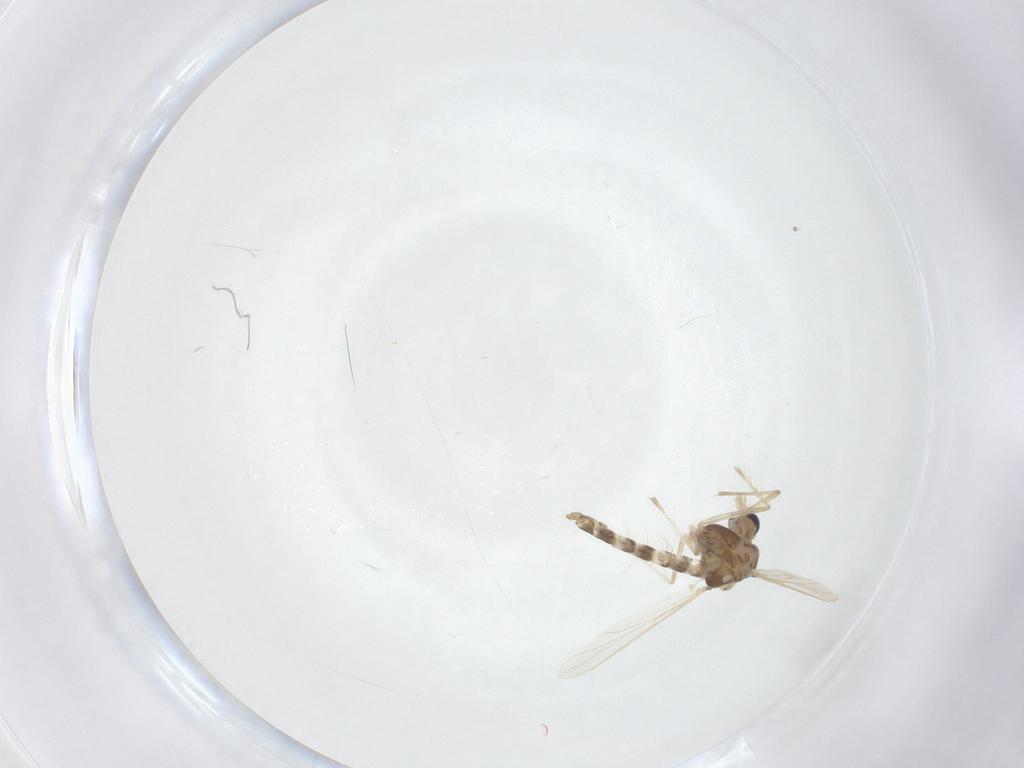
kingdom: Animalia
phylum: Arthropoda
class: Insecta
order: Diptera
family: Chironomidae
